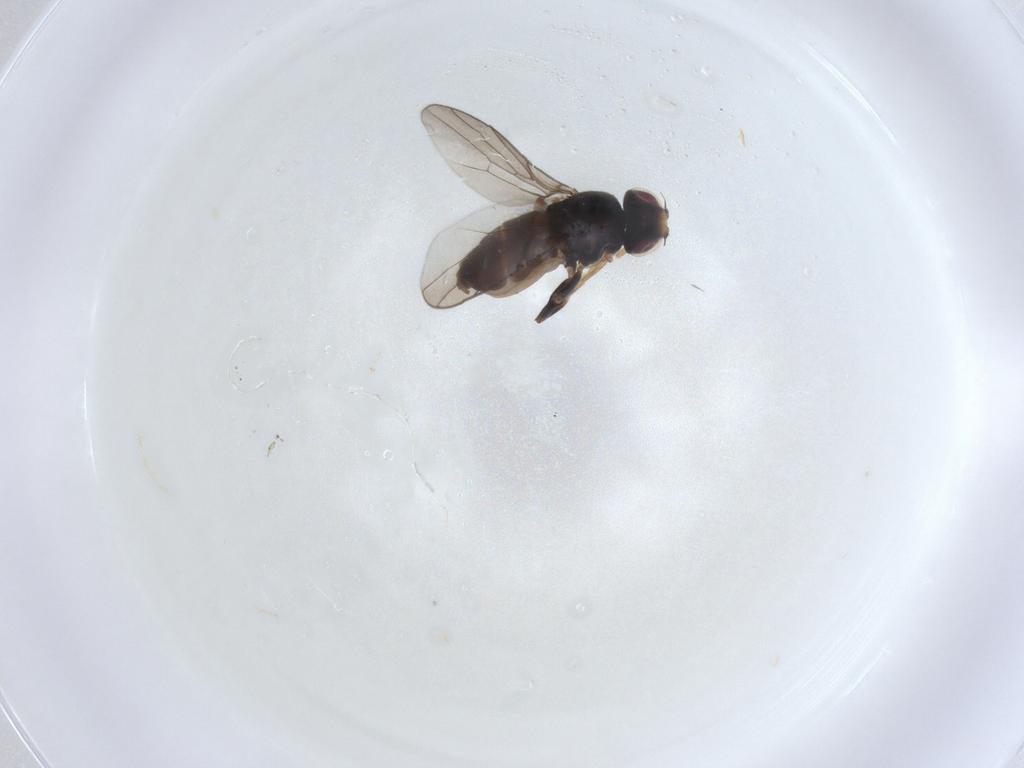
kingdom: Animalia
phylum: Arthropoda
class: Insecta
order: Diptera
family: Chloropidae
